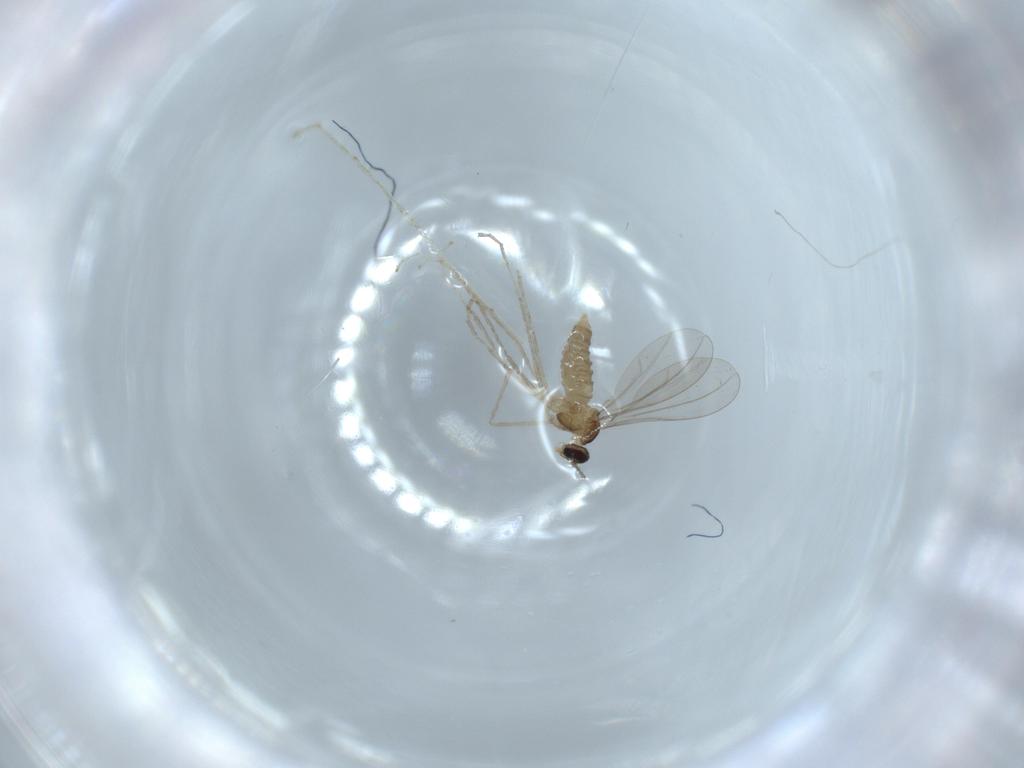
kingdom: Animalia
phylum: Arthropoda
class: Insecta
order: Diptera
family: Cecidomyiidae
